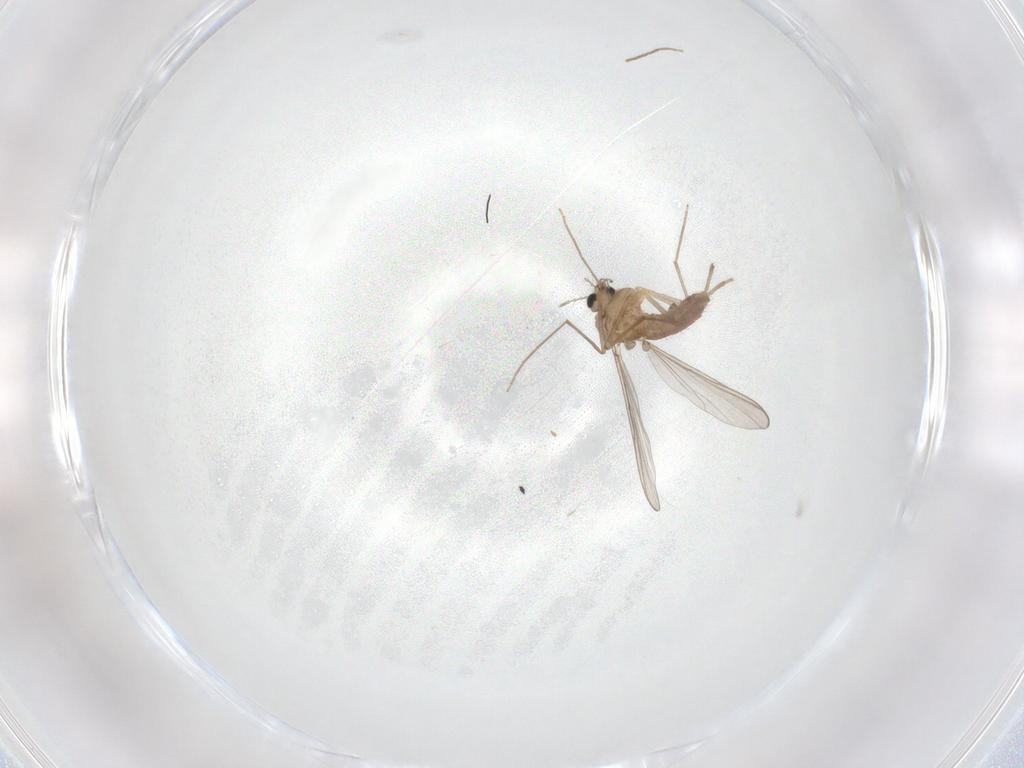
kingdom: Animalia
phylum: Arthropoda
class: Insecta
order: Diptera
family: Chironomidae
